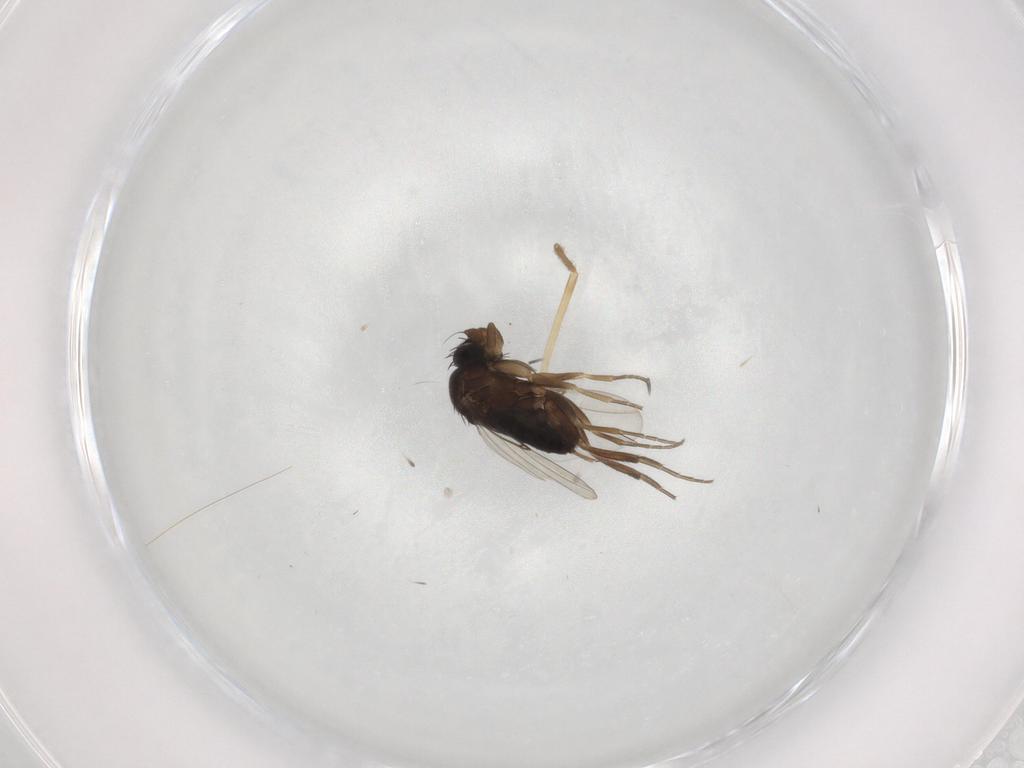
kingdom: Animalia
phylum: Arthropoda
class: Insecta
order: Diptera
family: Phoridae
